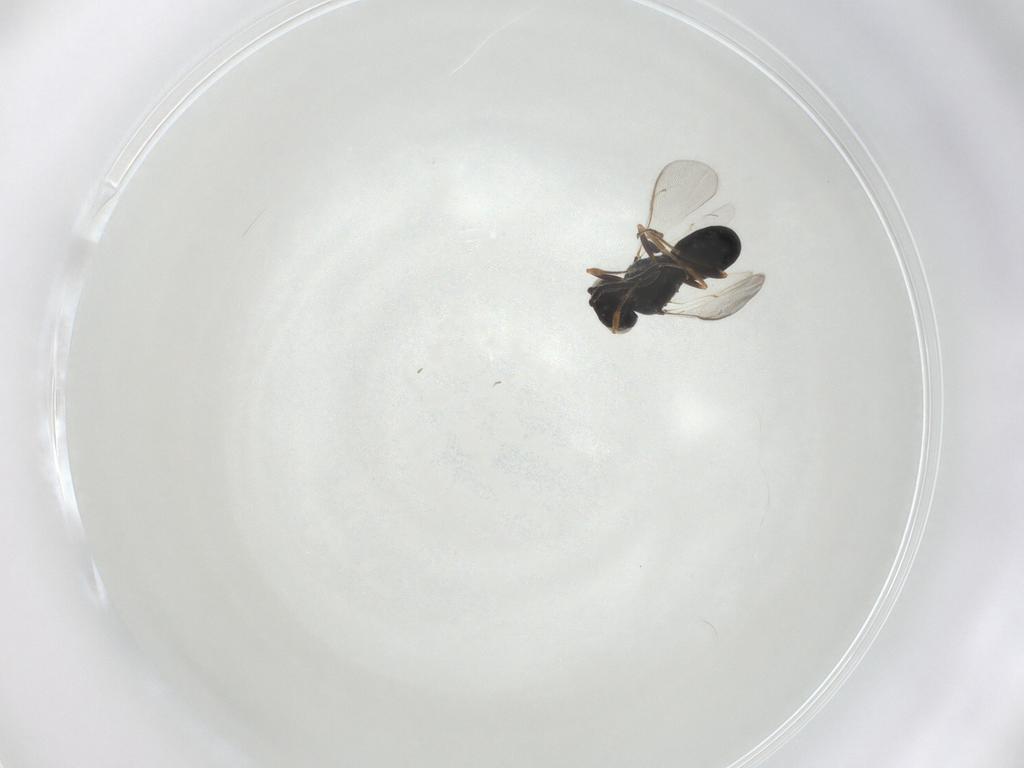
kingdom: Animalia
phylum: Arthropoda
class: Insecta
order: Hymenoptera
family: Scelionidae
